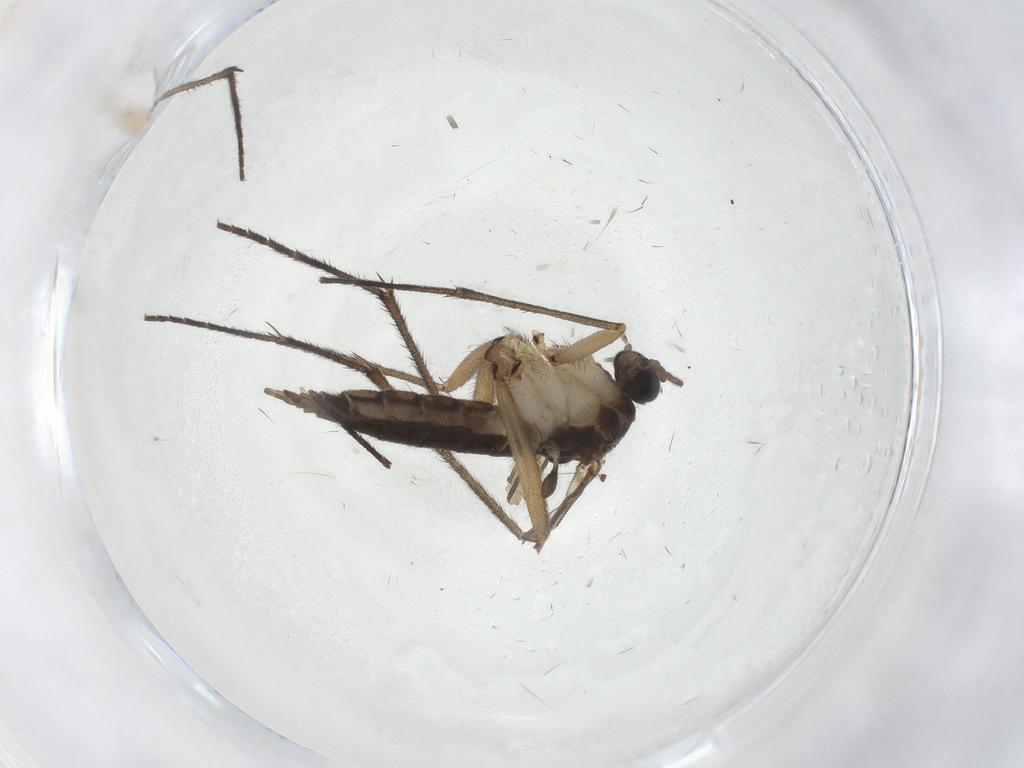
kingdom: Animalia
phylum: Arthropoda
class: Insecta
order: Diptera
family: Sciaridae
